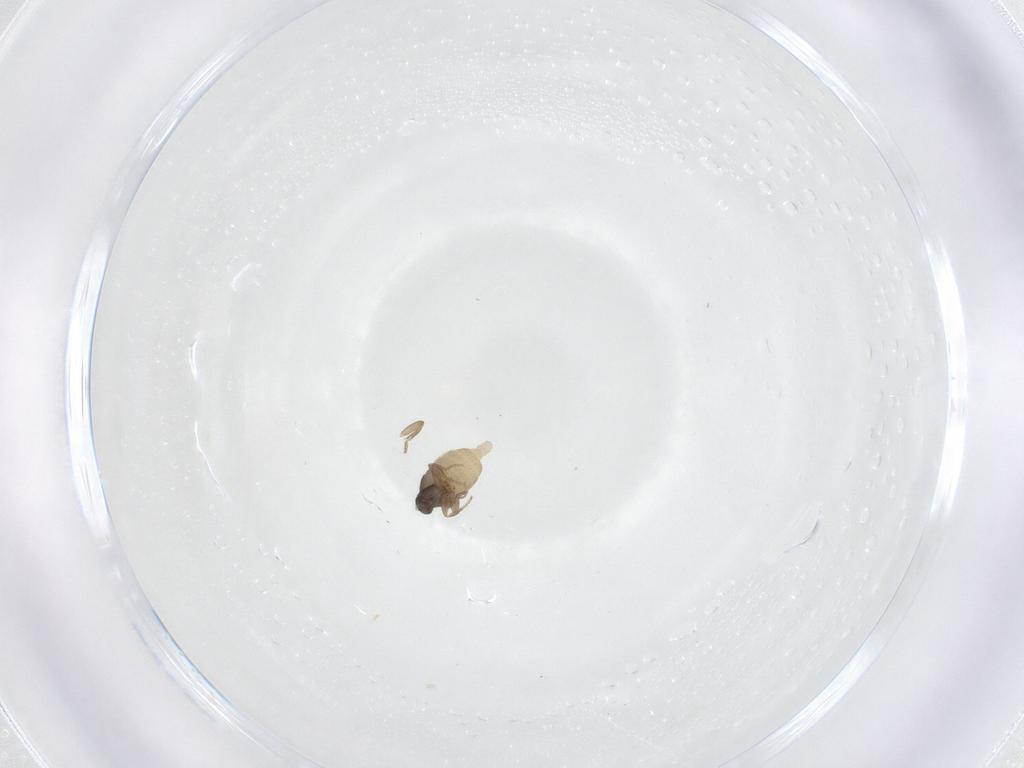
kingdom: Animalia
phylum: Arthropoda
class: Insecta
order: Diptera
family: Phoridae
